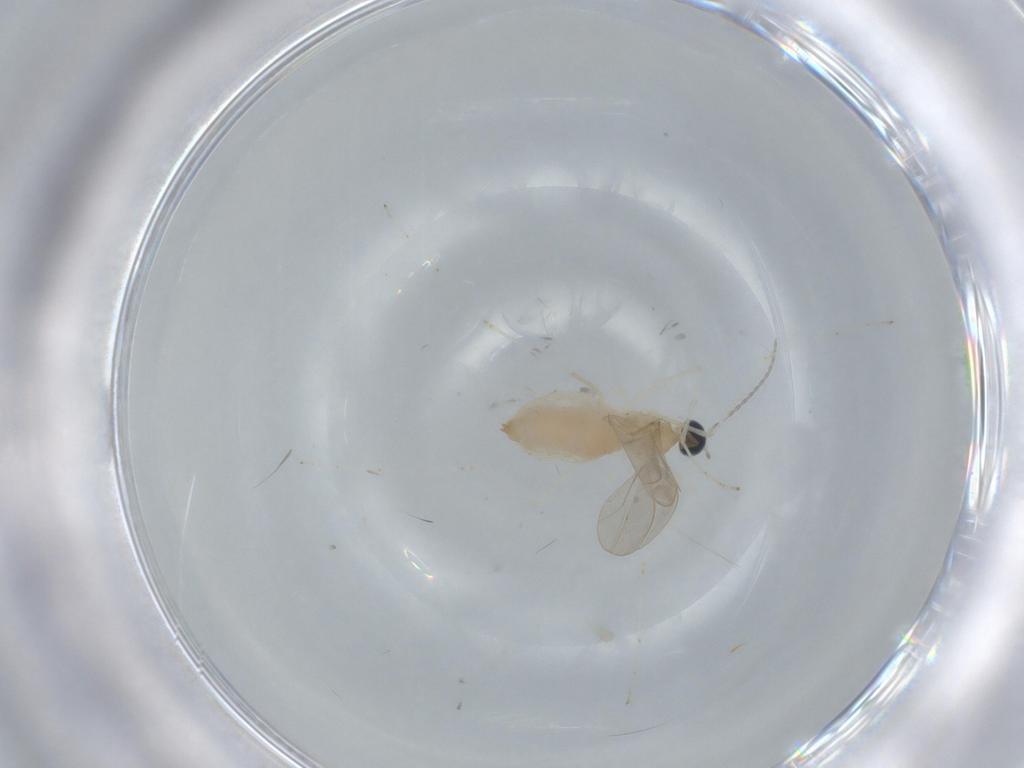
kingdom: Animalia
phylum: Arthropoda
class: Insecta
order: Diptera
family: Cecidomyiidae
